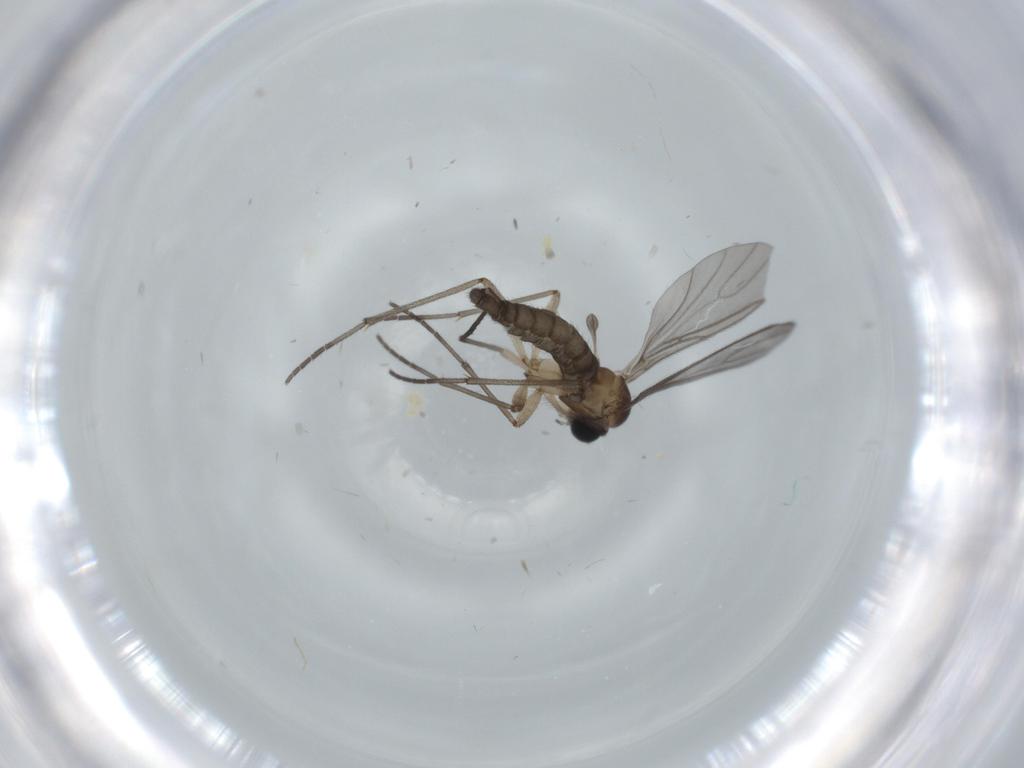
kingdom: Animalia
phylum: Arthropoda
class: Insecta
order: Diptera
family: Sciaridae
